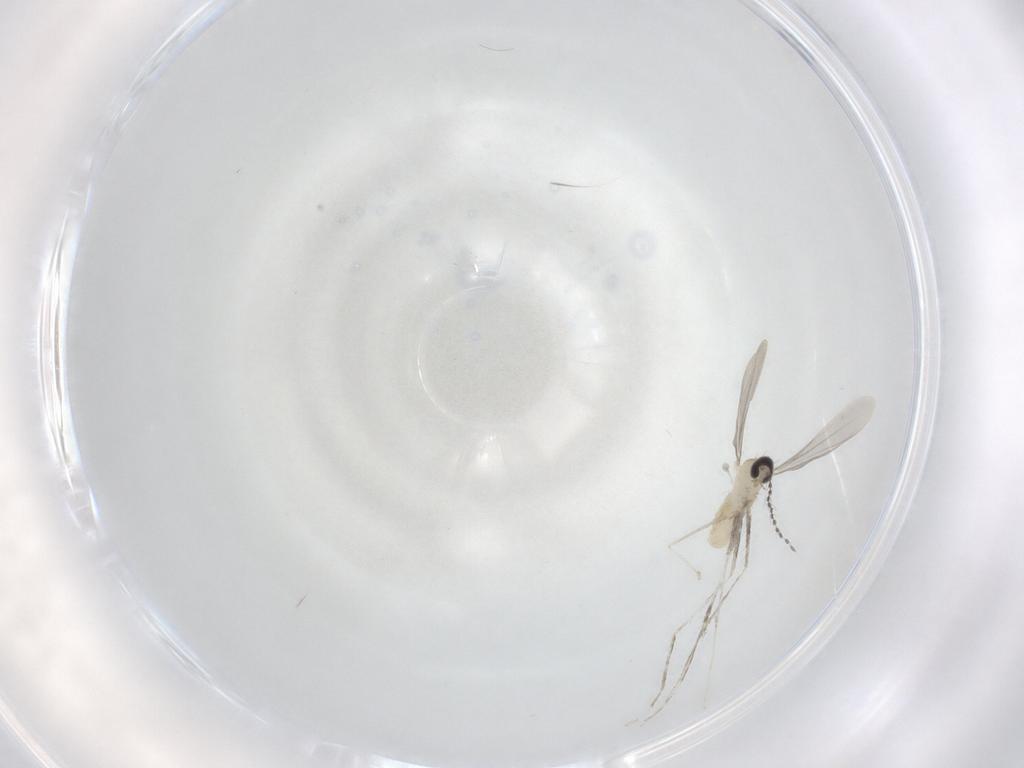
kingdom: Animalia
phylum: Arthropoda
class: Insecta
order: Diptera
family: Cecidomyiidae
